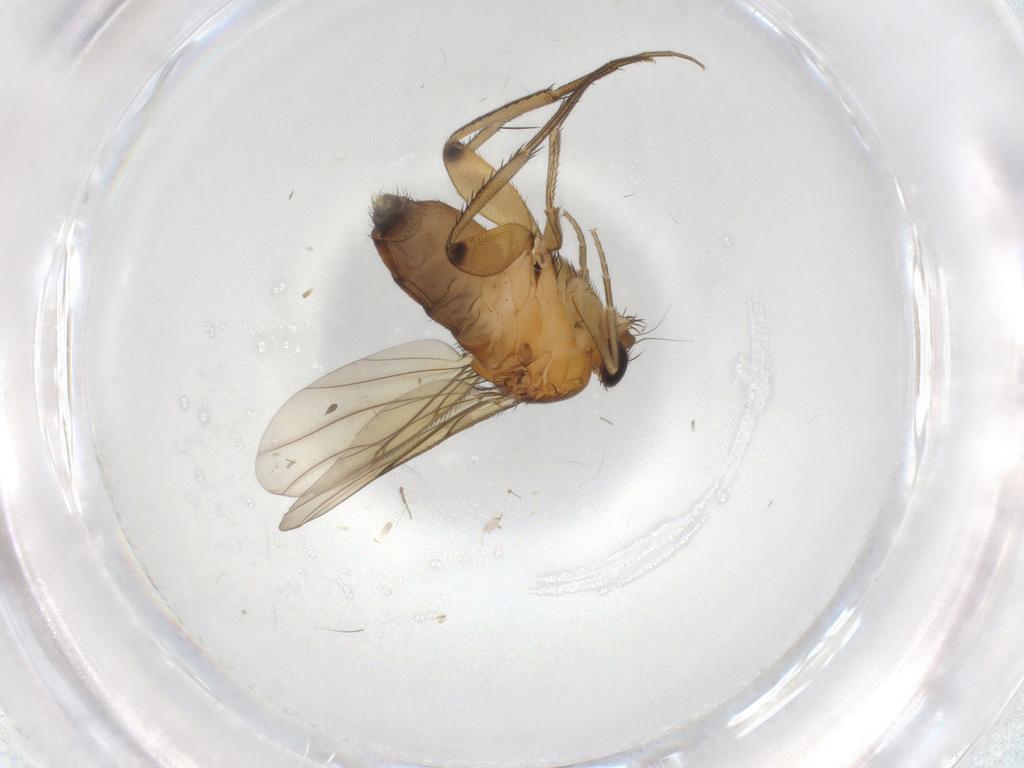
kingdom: Animalia
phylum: Arthropoda
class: Insecta
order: Diptera
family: Phoridae
